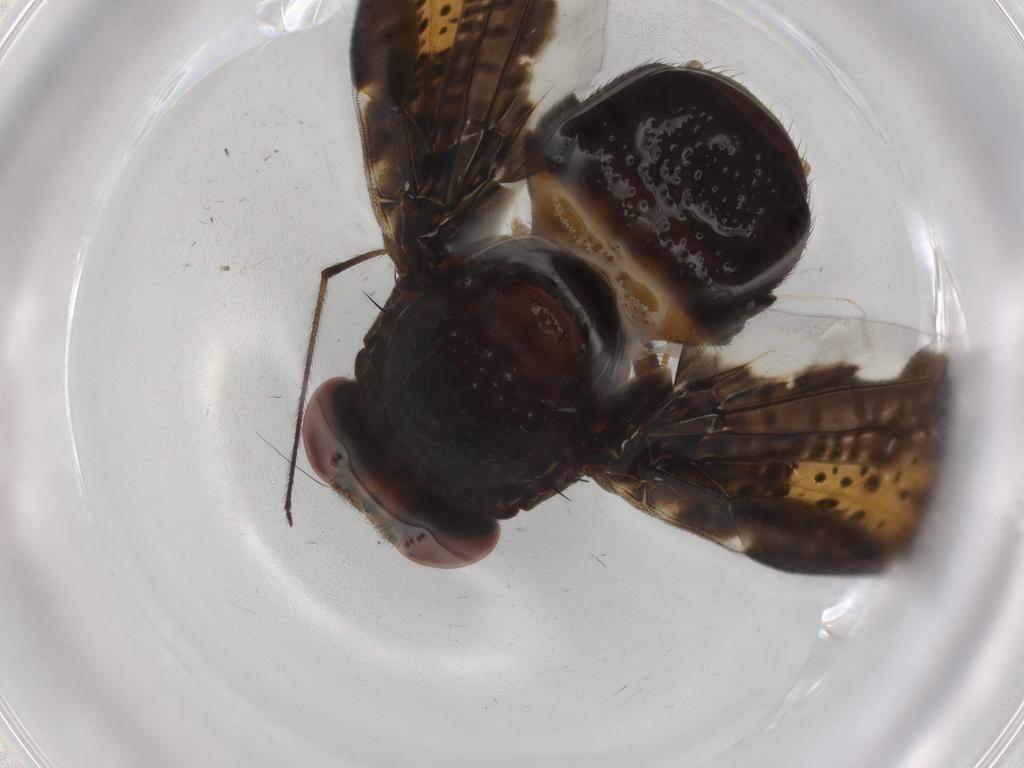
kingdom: Animalia
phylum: Arthropoda
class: Insecta
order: Diptera
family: Ulidiidae
